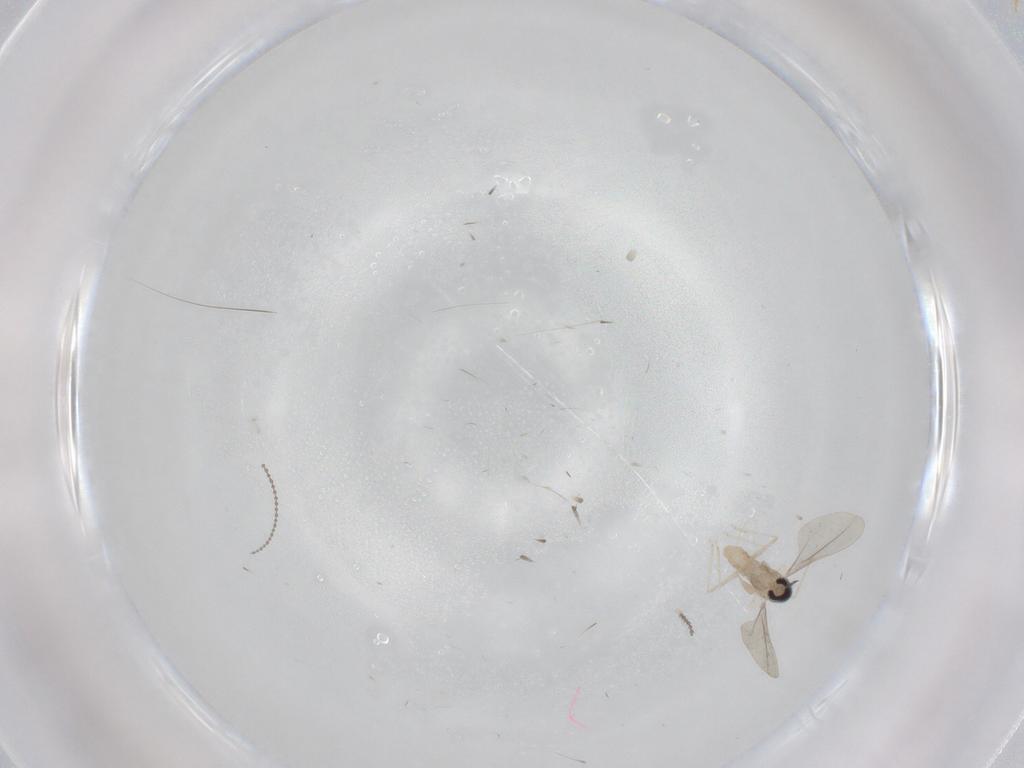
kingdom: Animalia
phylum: Arthropoda
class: Insecta
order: Diptera
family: Cecidomyiidae
